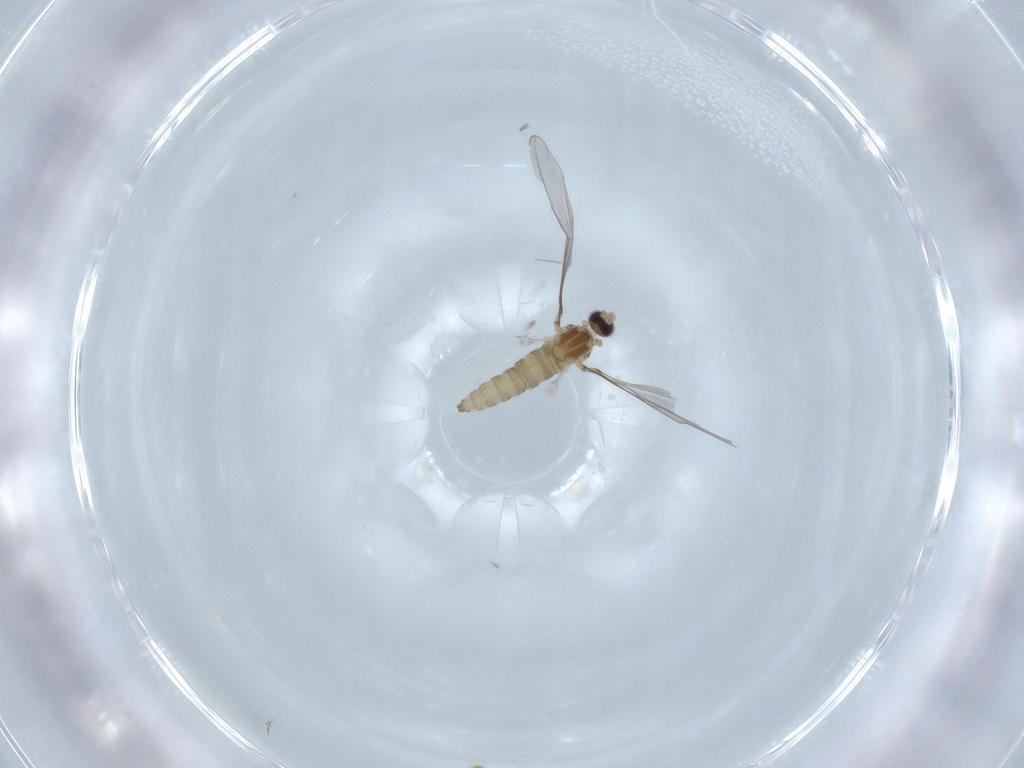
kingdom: Animalia
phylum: Arthropoda
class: Insecta
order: Diptera
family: Cecidomyiidae
